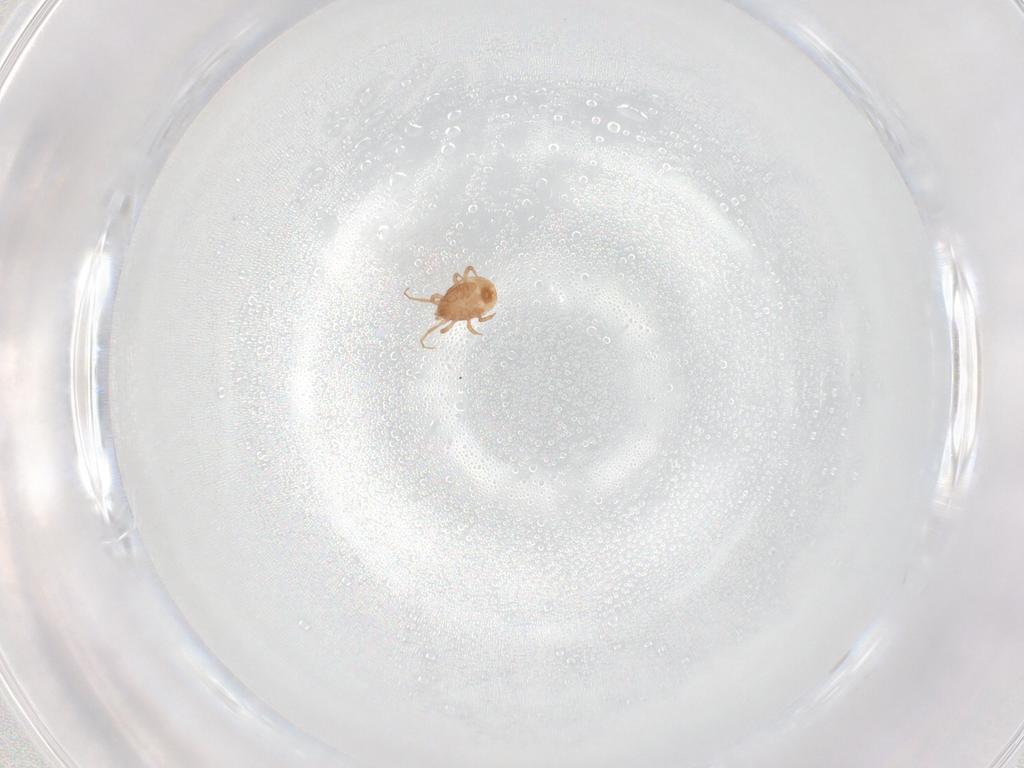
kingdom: Animalia
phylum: Arthropoda
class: Arachnida
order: Mesostigmata
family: Blattisociidae
